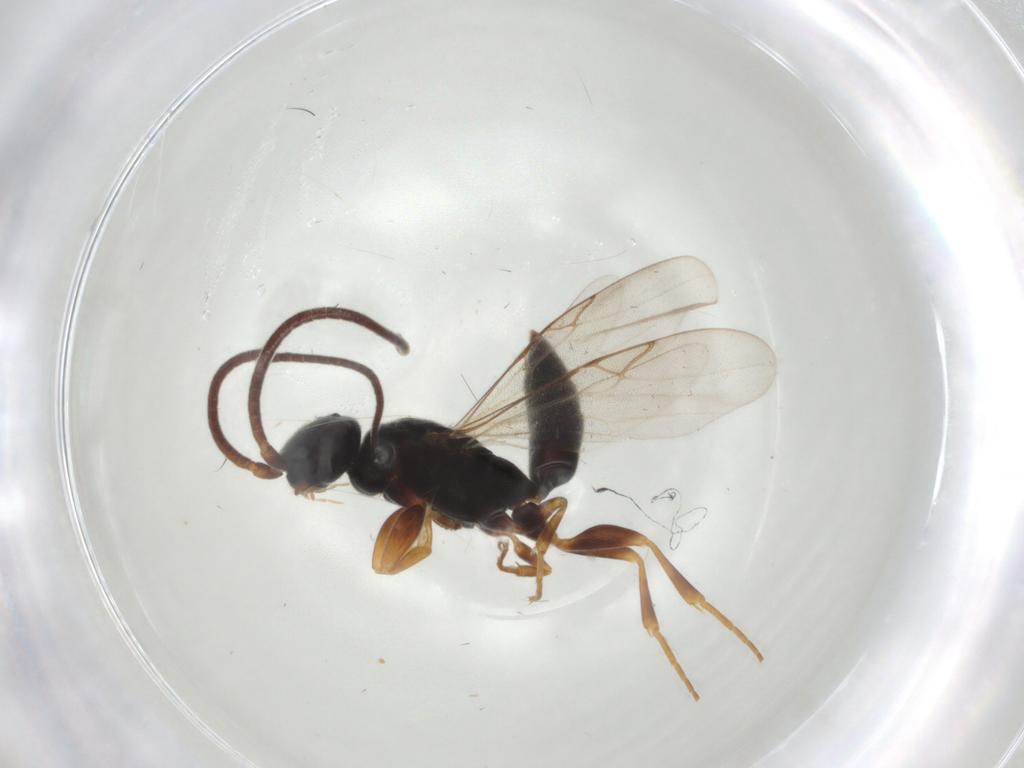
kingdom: Animalia
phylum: Arthropoda
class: Insecta
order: Hymenoptera
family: Sclerogibbidae
